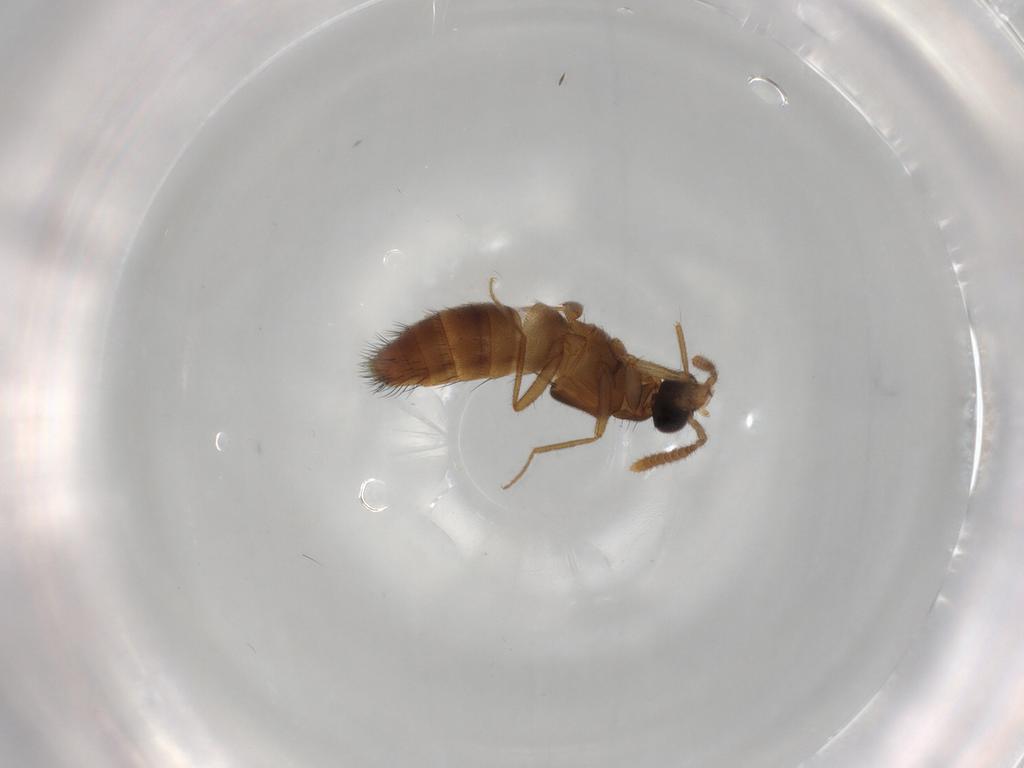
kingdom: Animalia
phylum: Arthropoda
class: Insecta
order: Coleoptera
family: Staphylinidae
